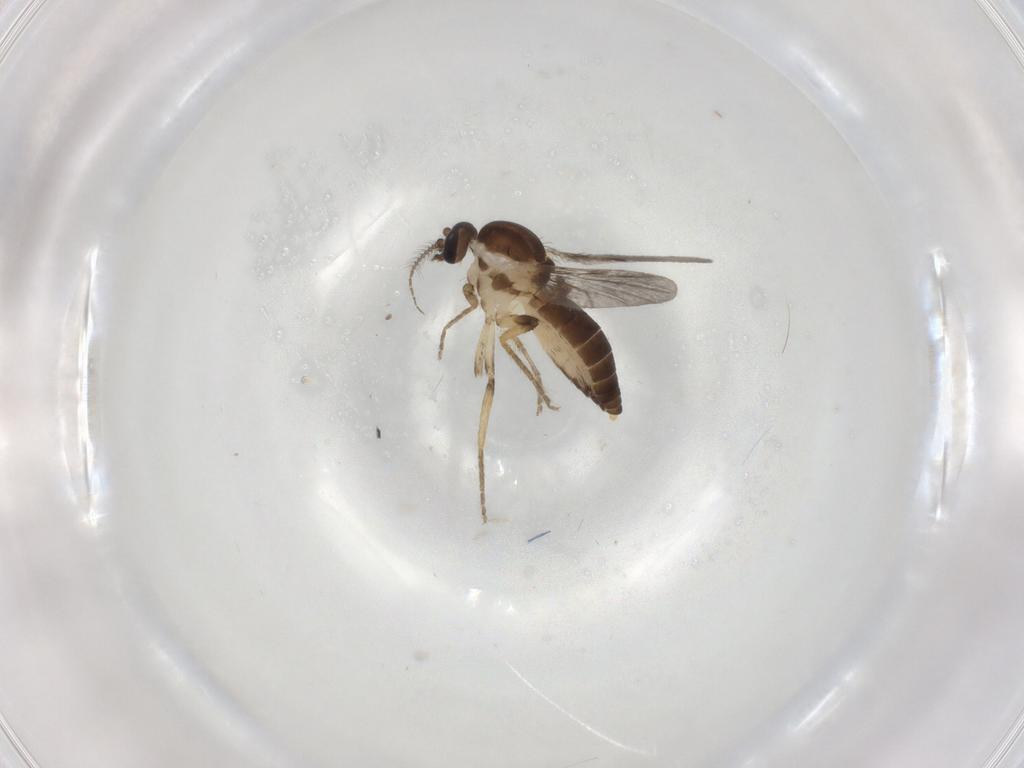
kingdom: Animalia
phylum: Arthropoda
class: Insecta
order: Diptera
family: Ceratopogonidae
